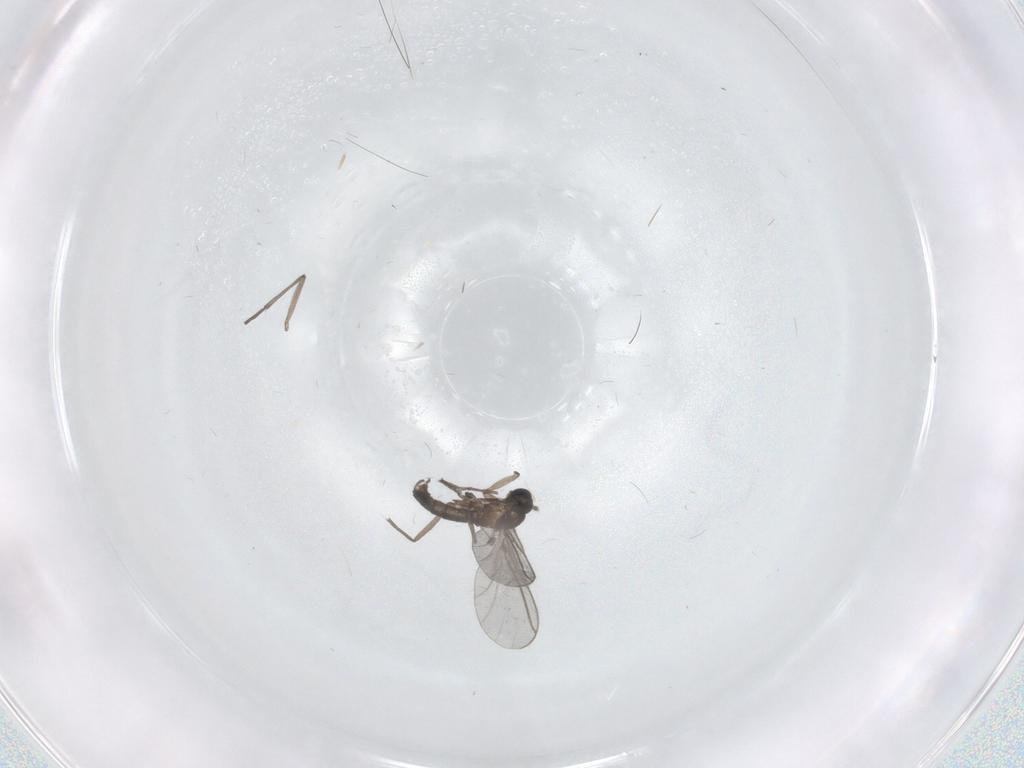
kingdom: Animalia
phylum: Arthropoda
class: Insecta
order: Diptera
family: Ceratopogonidae
